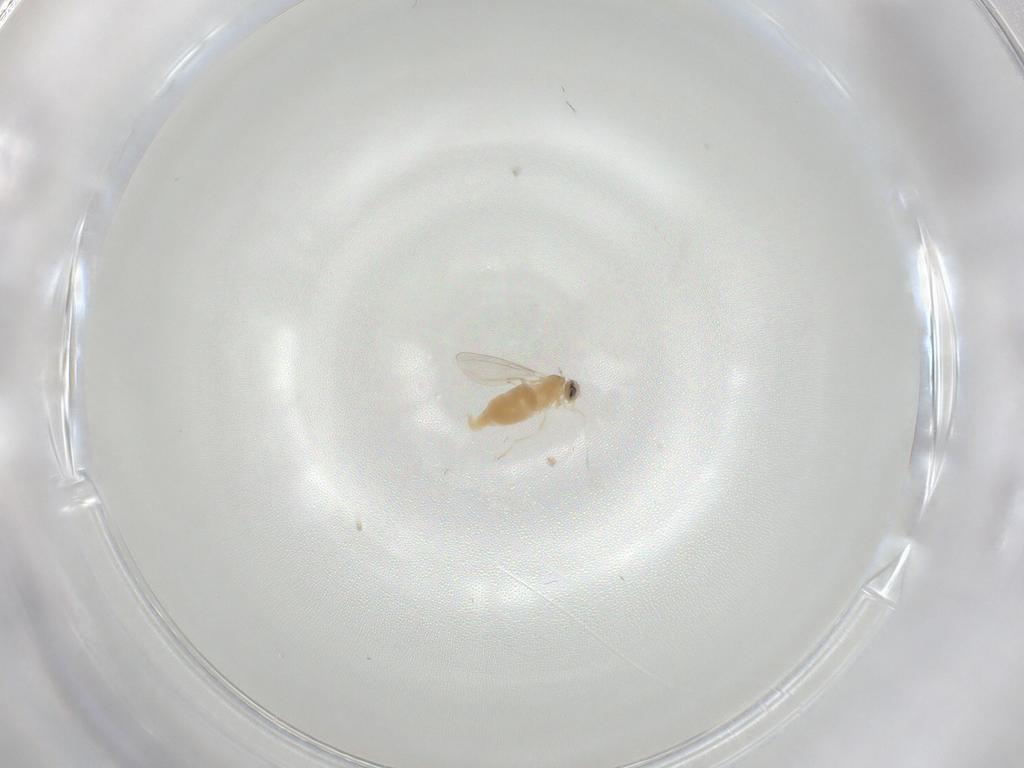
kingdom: Animalia
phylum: Arthropoda
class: Insecta
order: Diptera
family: Cecidomyiidae
